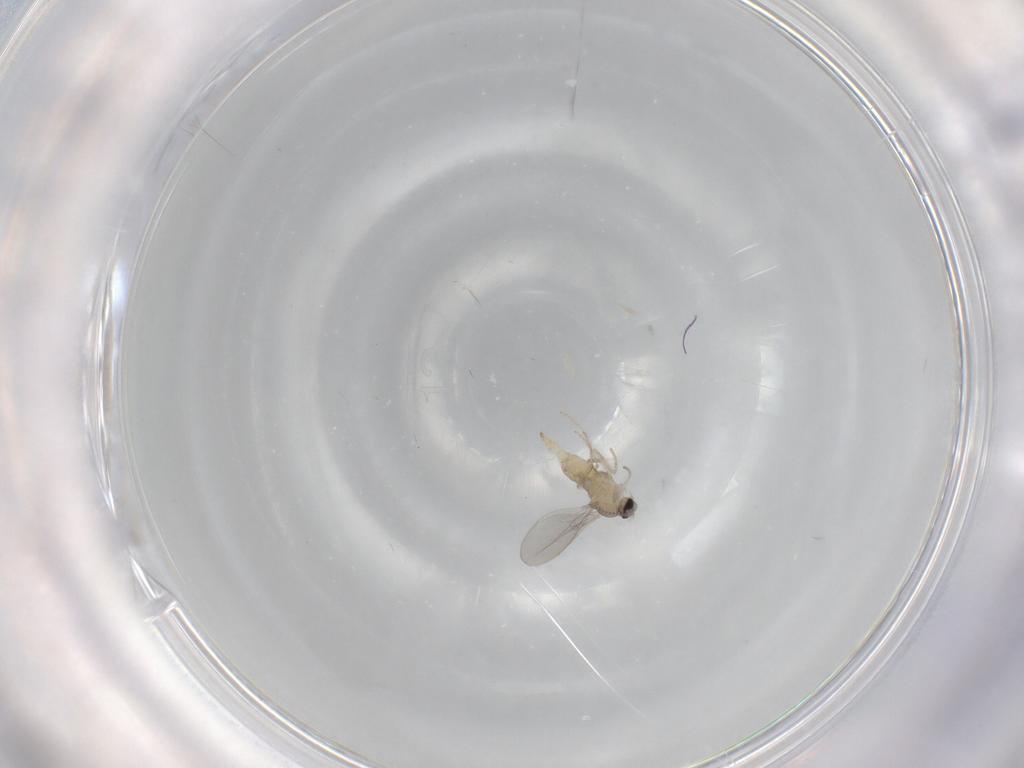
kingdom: Animalia
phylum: Arthropoda
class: Insecta
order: Diptera
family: Cecidomyiidae
